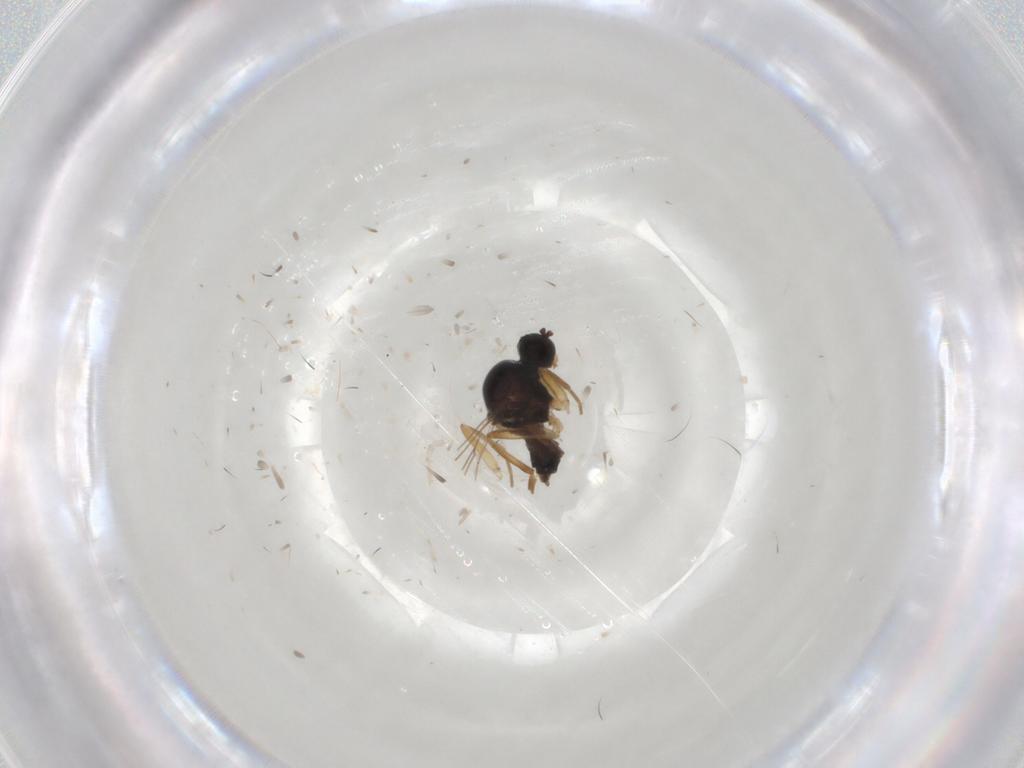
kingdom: Animalia
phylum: Arthropoda
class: Insecta
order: Diptera
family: Hybotidae
